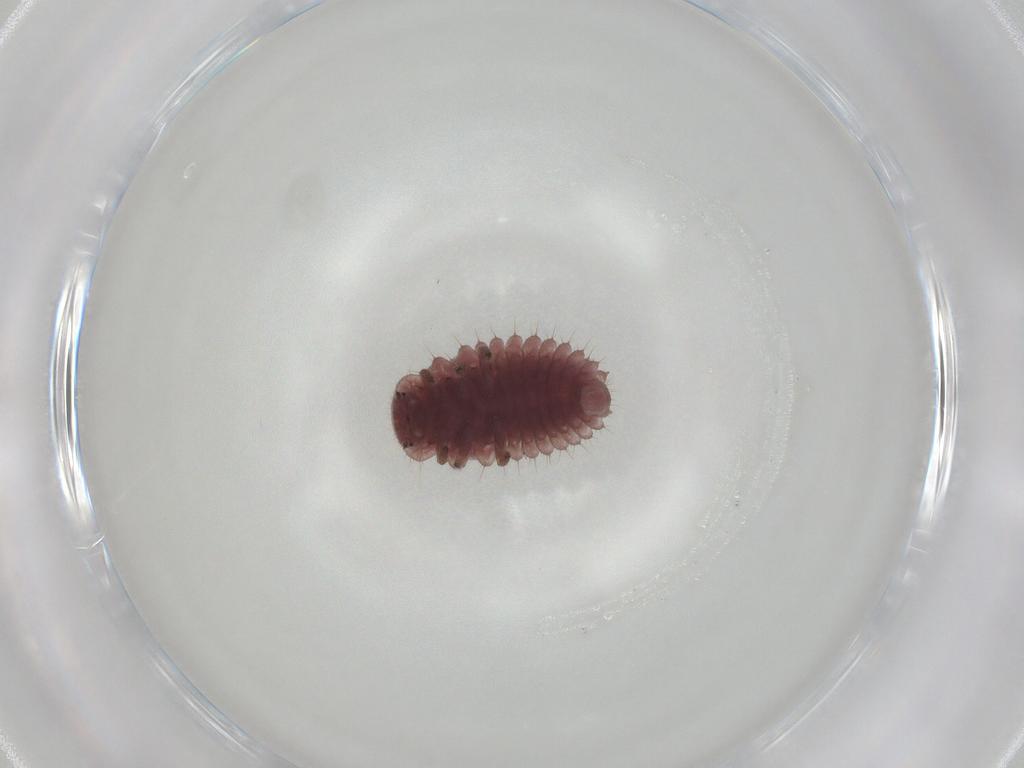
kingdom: Animalia
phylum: Arthropoda
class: Insecta
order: Coleoptera
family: Coccinellidae
